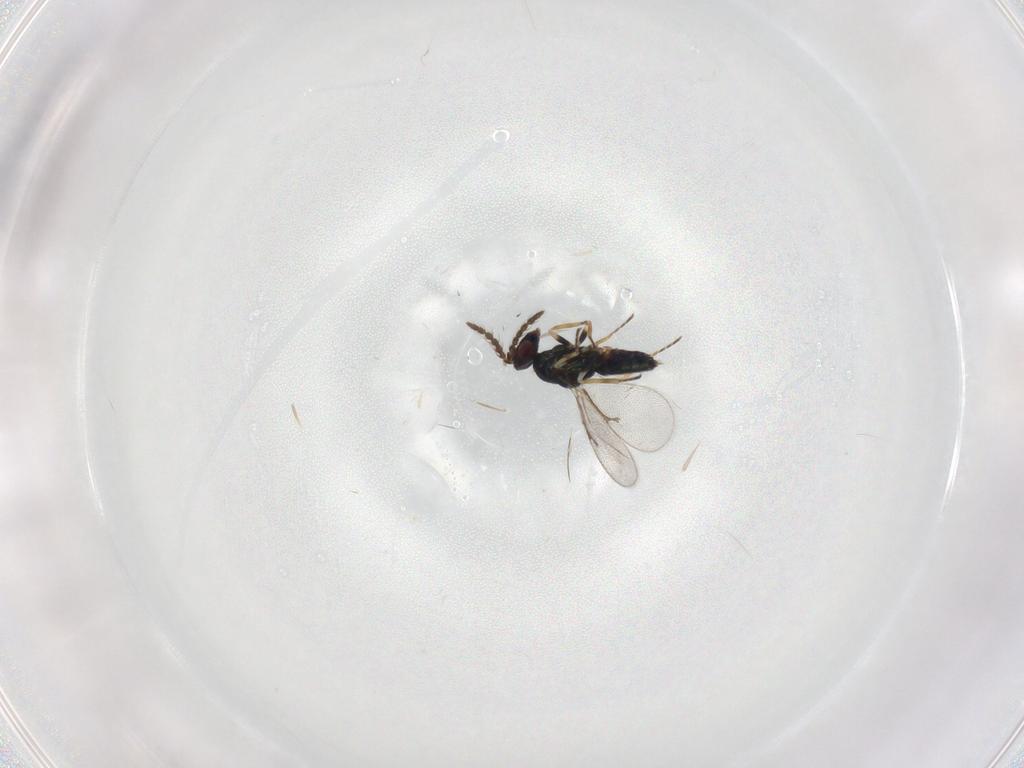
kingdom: Animalia
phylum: Arthropoda
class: Insecta
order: Hymenoptera
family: Eulophidae
